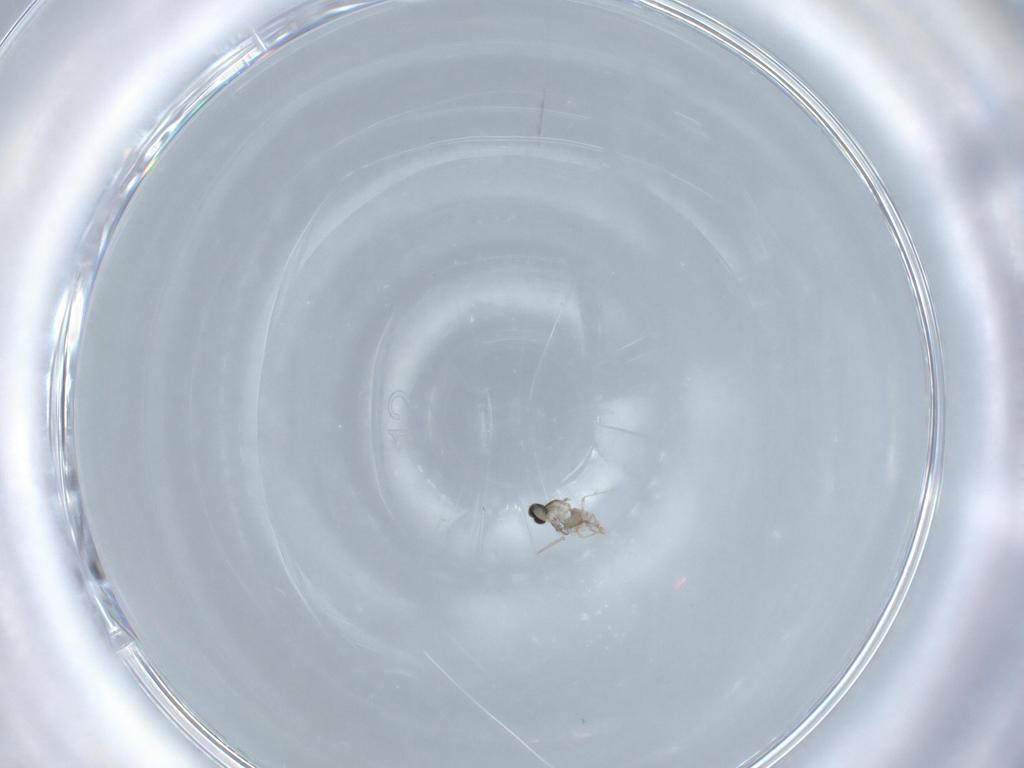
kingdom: Animalia
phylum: Arthropoda
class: Insecta
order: Diptera
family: Cecidomyiidae
